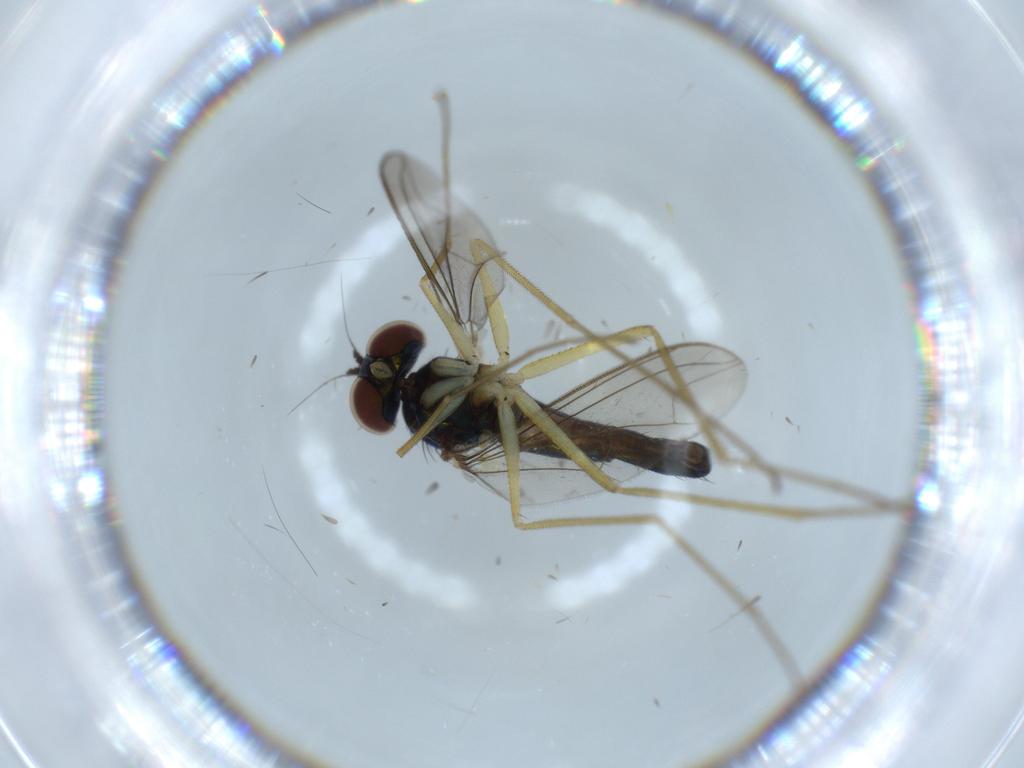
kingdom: Animalia
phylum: Arthropoda
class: Insecta
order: Diptera
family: Dolichopodidae
